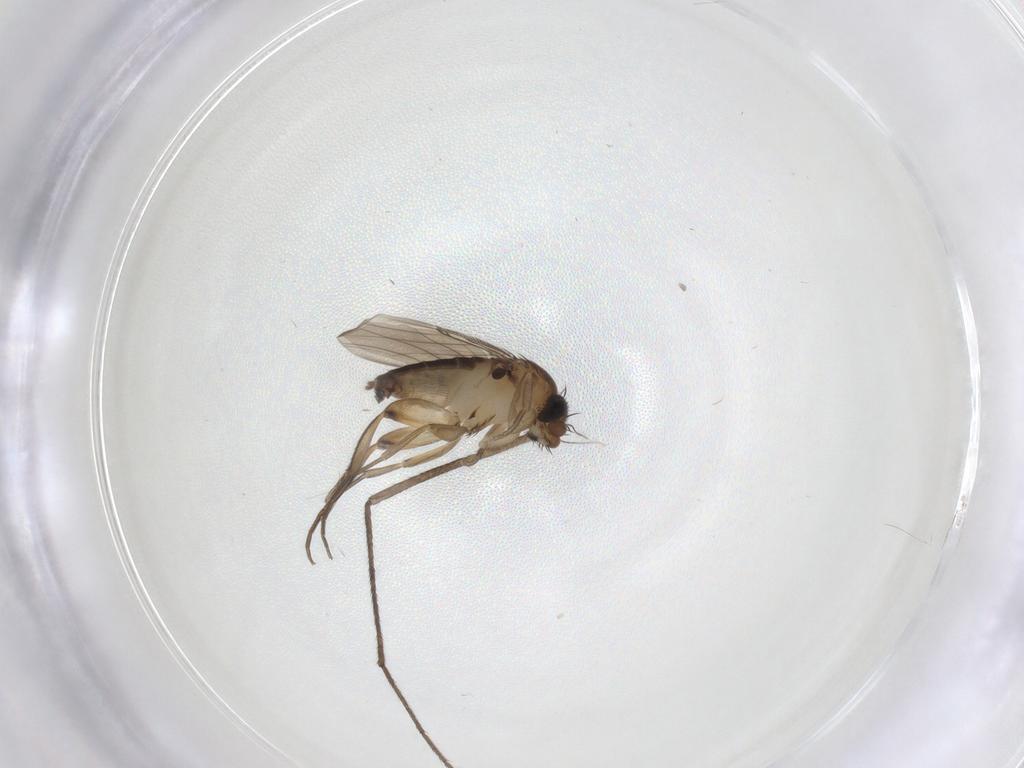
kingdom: Animalia
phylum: Arthropoda
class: Insecta
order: Diptera
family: Phoridae
